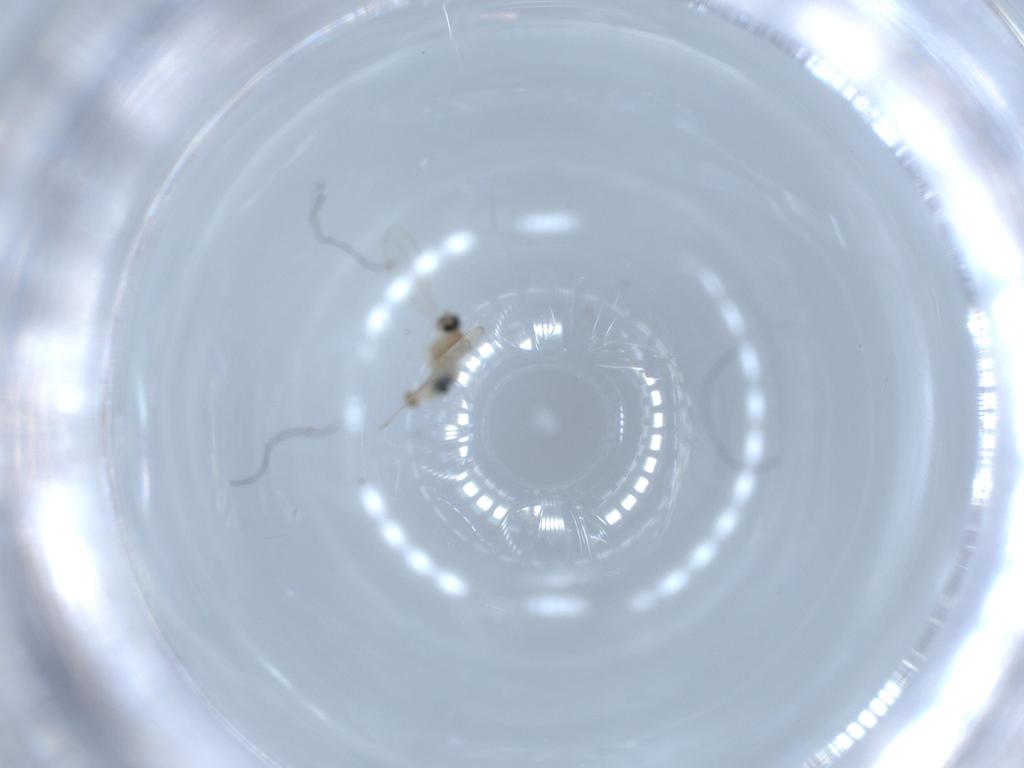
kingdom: Animalia
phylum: Arthropoda
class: Insecta
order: Diptera
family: Cecidomyiidae
